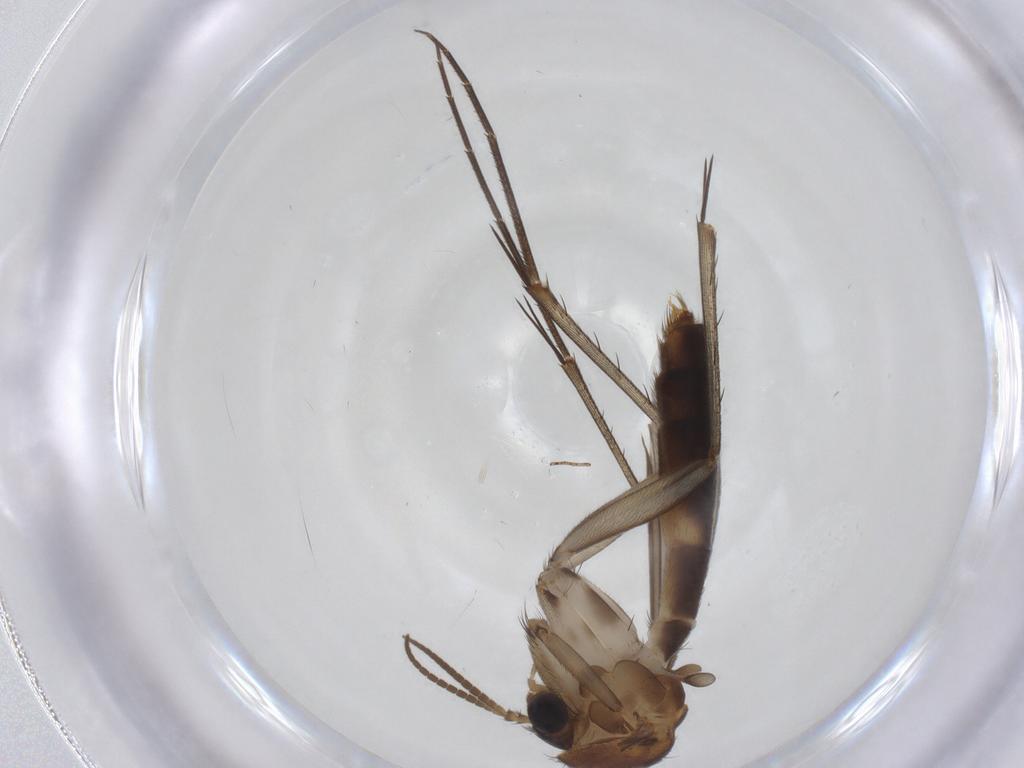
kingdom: Animalia
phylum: Arthropoda
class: Insecta
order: Diptera
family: Mycetophilidae
